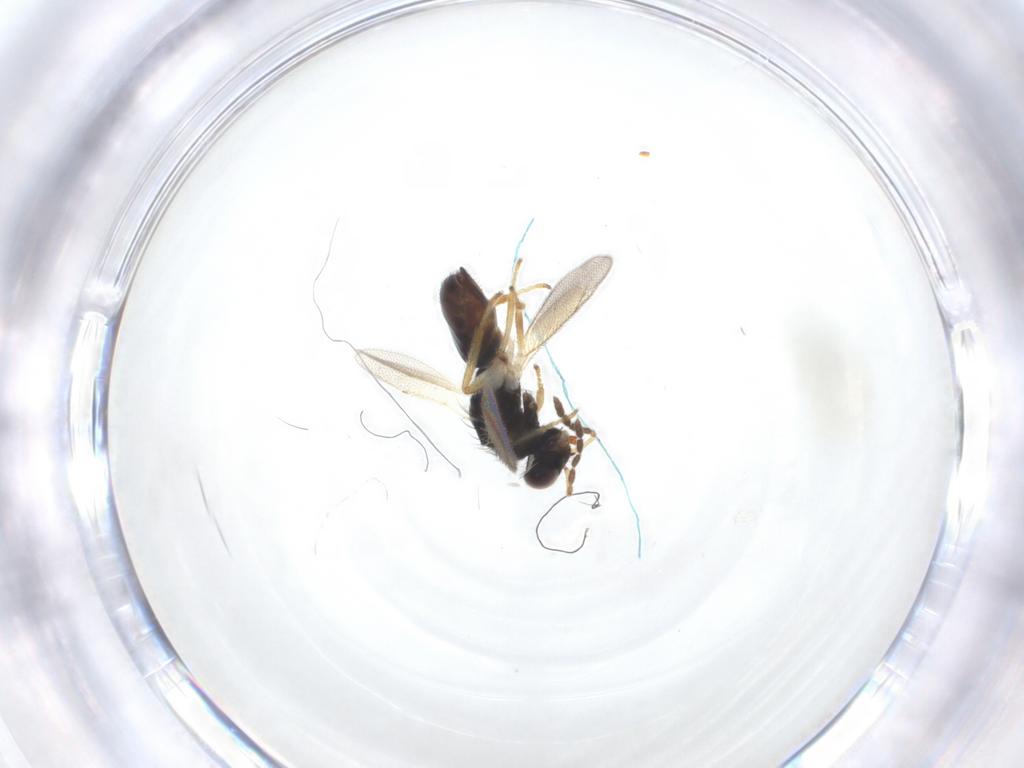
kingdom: Animalia
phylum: Arthropoda
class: Insecta
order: Hymenoptera
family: Eulophidae
